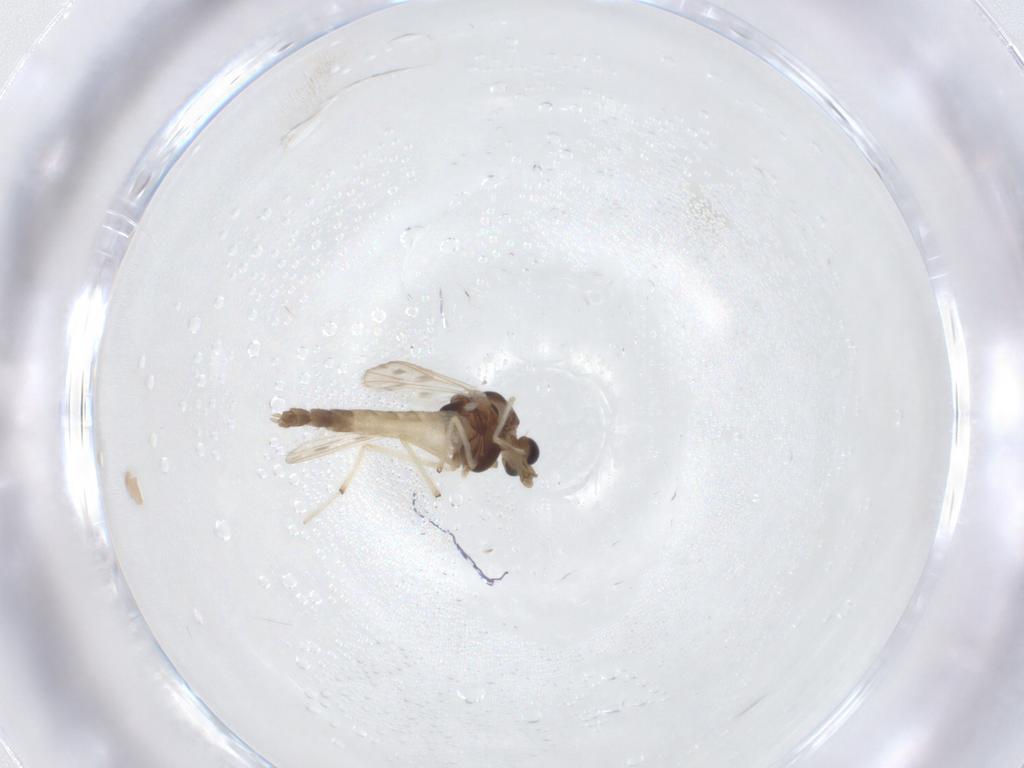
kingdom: Animalia
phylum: Arthropoda
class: Insecta
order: Diptera
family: Chironomidae
